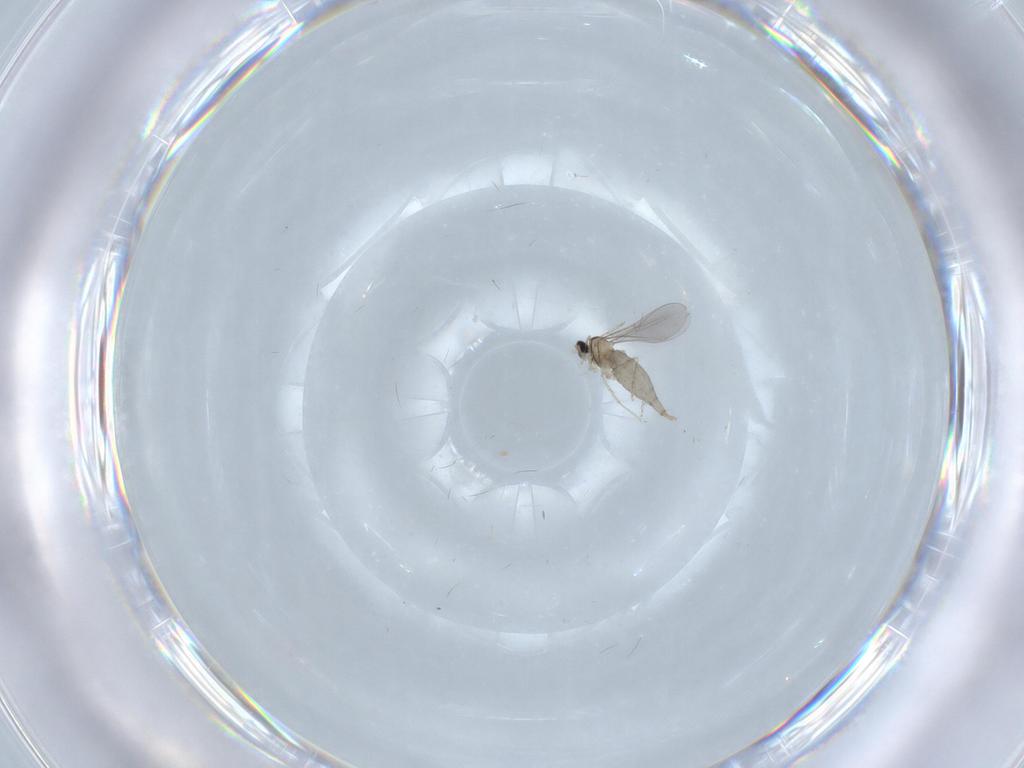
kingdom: Animalia
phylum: Arthropoda
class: Insecta
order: Diptera
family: Cecidomyiidae
